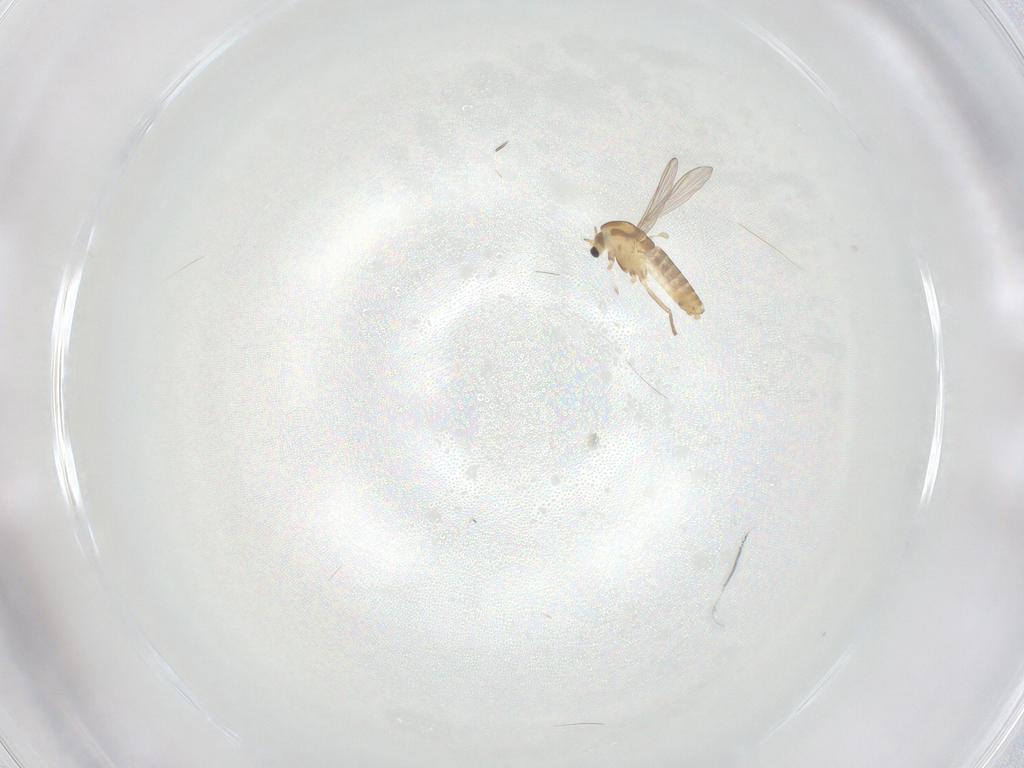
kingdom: Animalia
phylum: Arthropoda
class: Insecta
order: Diptera
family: Chironomidae
